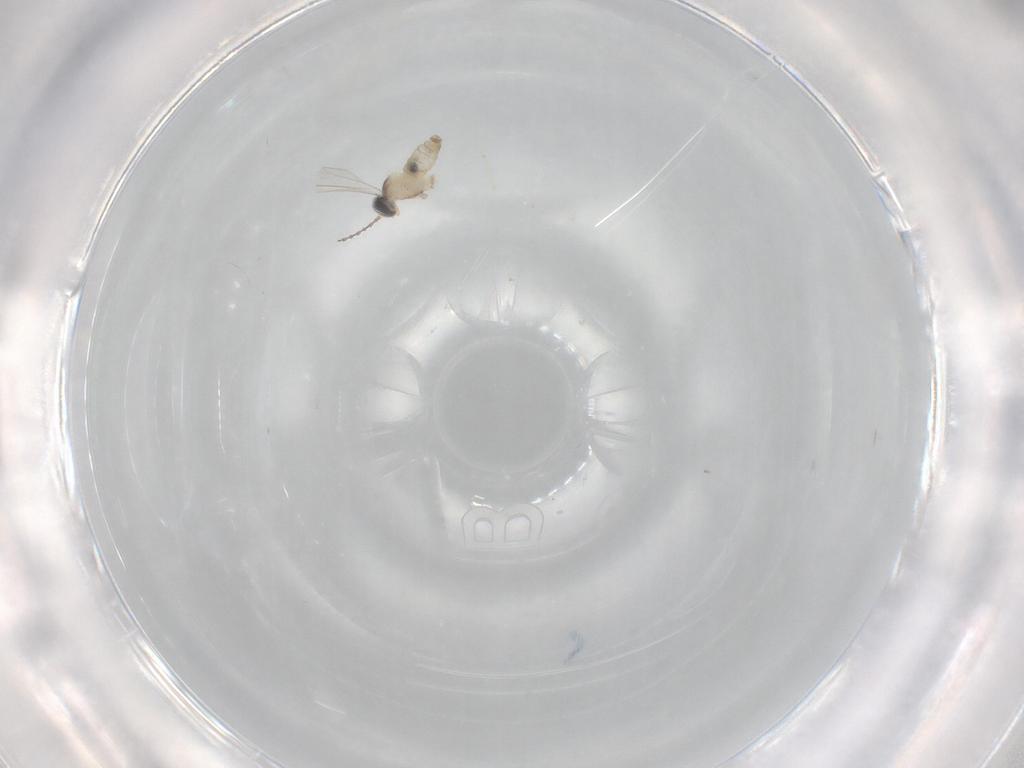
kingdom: Animalia
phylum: Arthropoda
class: Insecta
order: Diptera
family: Cecidomyiidae
